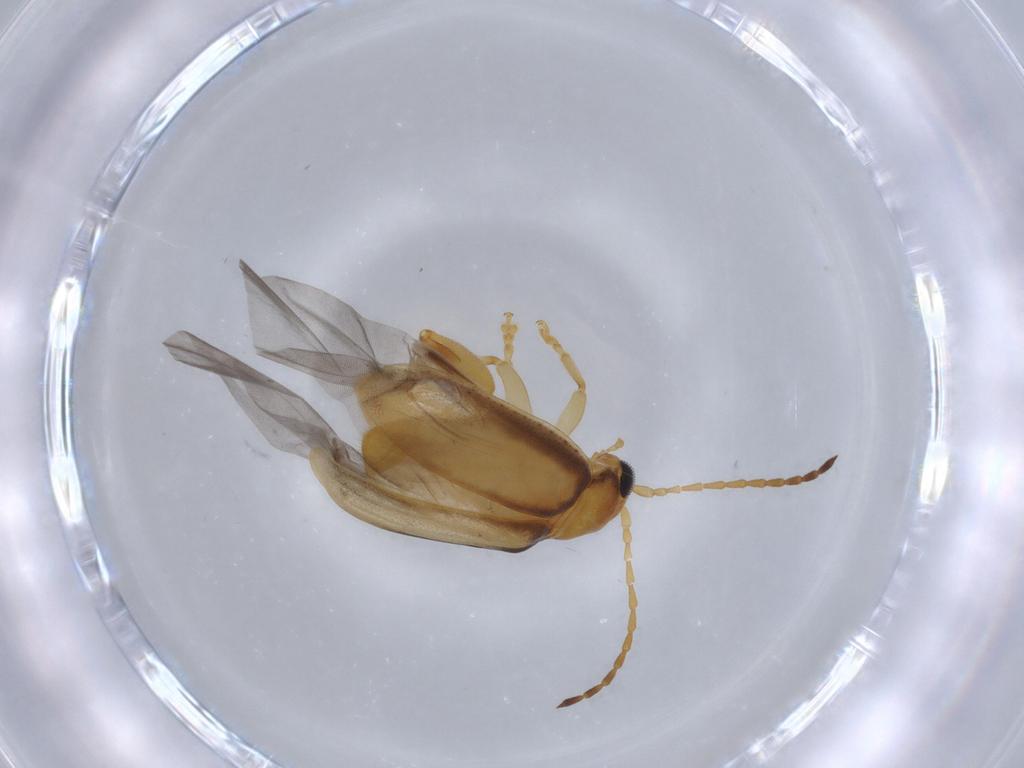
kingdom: Animalia
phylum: Arthropoda
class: Insecta
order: Coleoptera
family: Chrysomelidae
